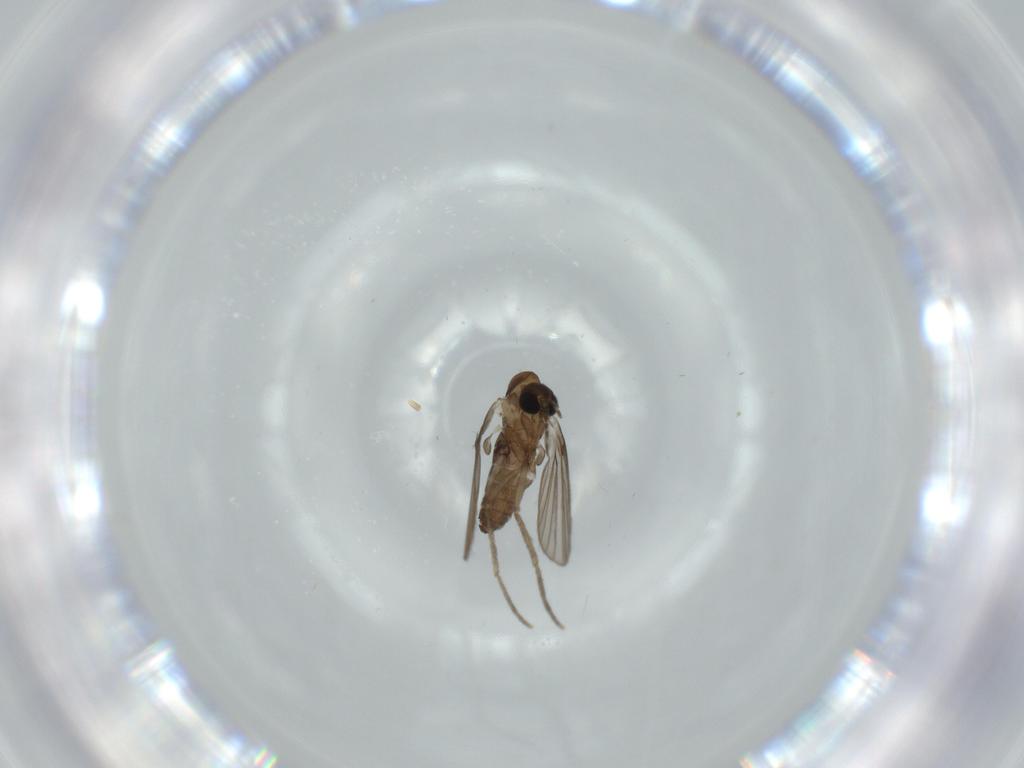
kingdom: Animalia
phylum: Arthropoda
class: Insecta
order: Diptera
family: Psychodidae
